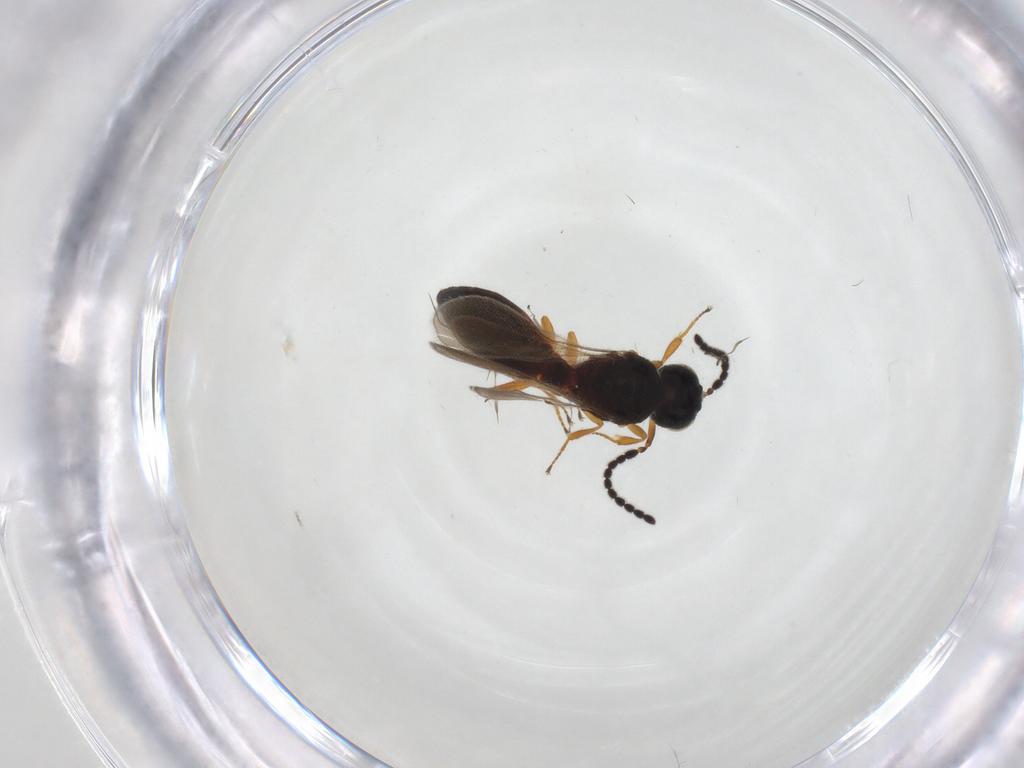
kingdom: Animalia
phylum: Arthropoda
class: Insecta
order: Hymenoptera
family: Scelionidae
